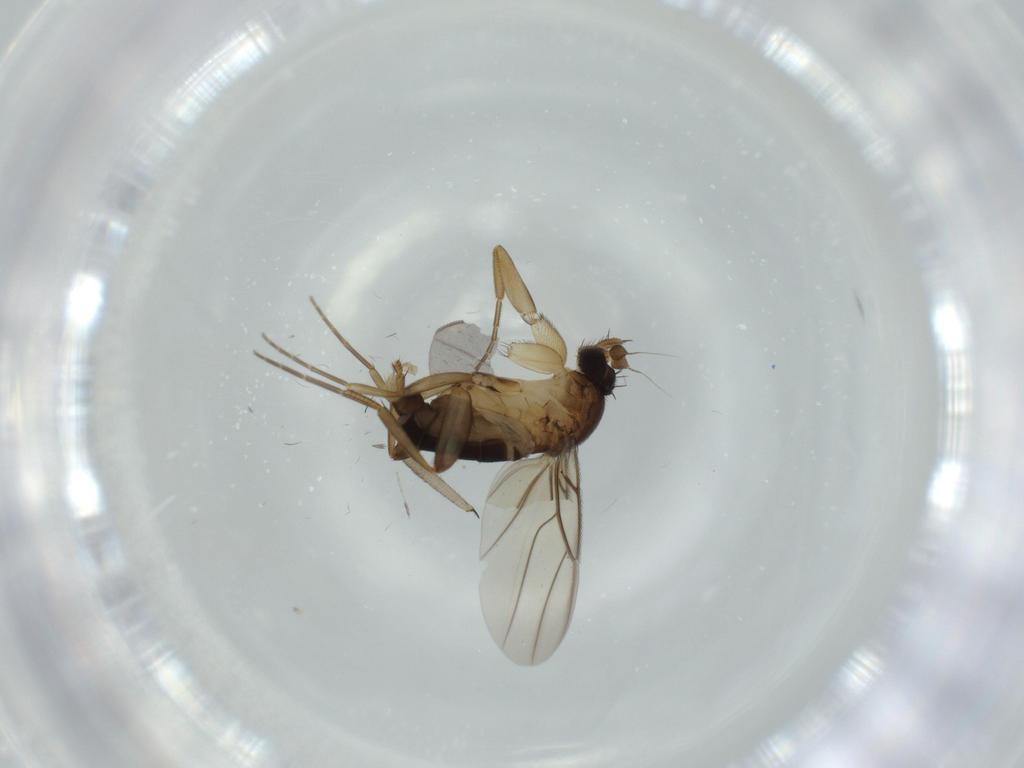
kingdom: Animalia
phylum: Arthropoda
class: Insecta
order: Diptera
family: Sciaridae
